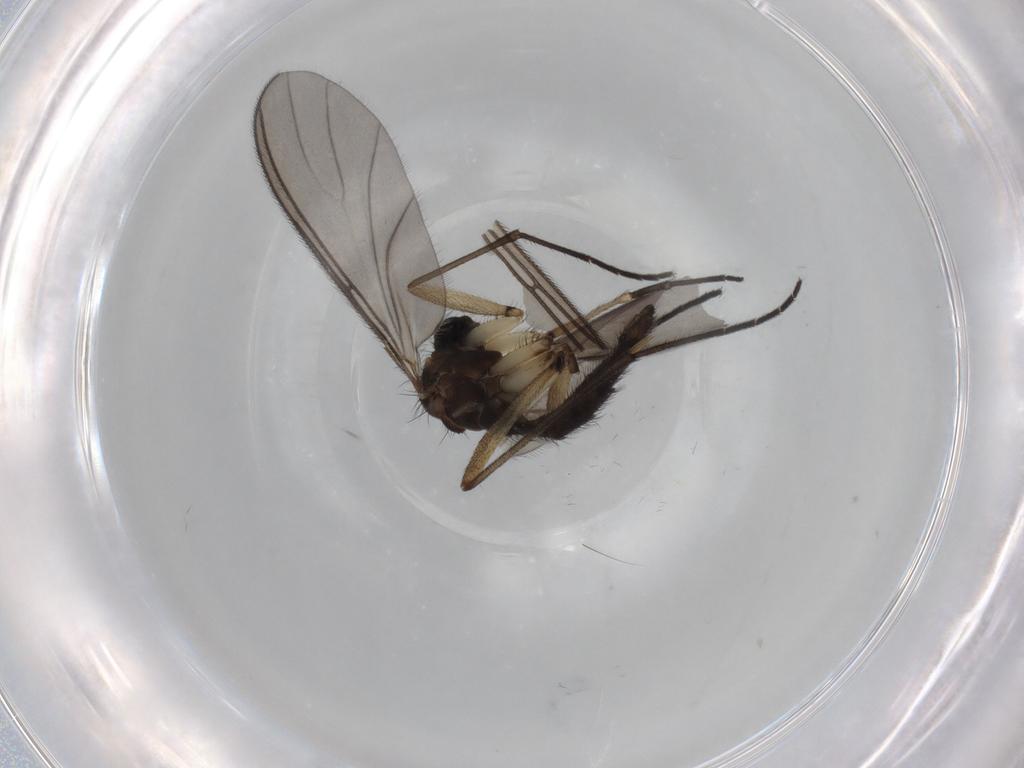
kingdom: Animalia
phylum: Arthropoda
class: Insecta
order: Diptera
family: Sciaridae
